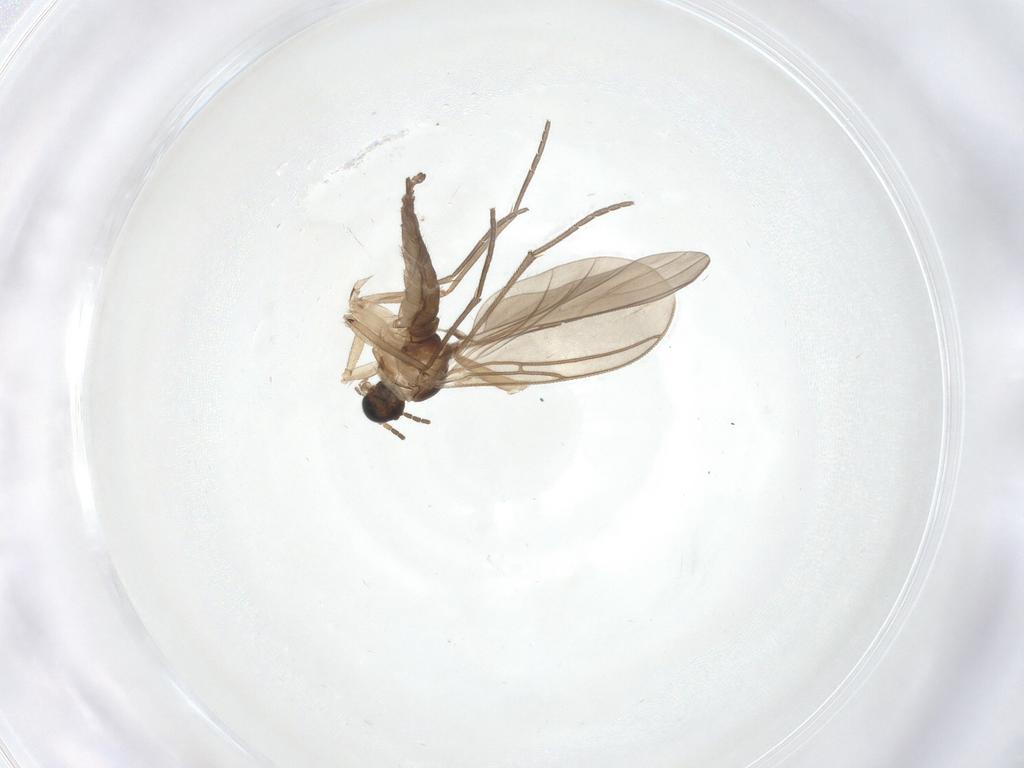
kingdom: Animalia
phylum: Arthropoda
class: Insecta
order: Diptera
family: Sciaridae
